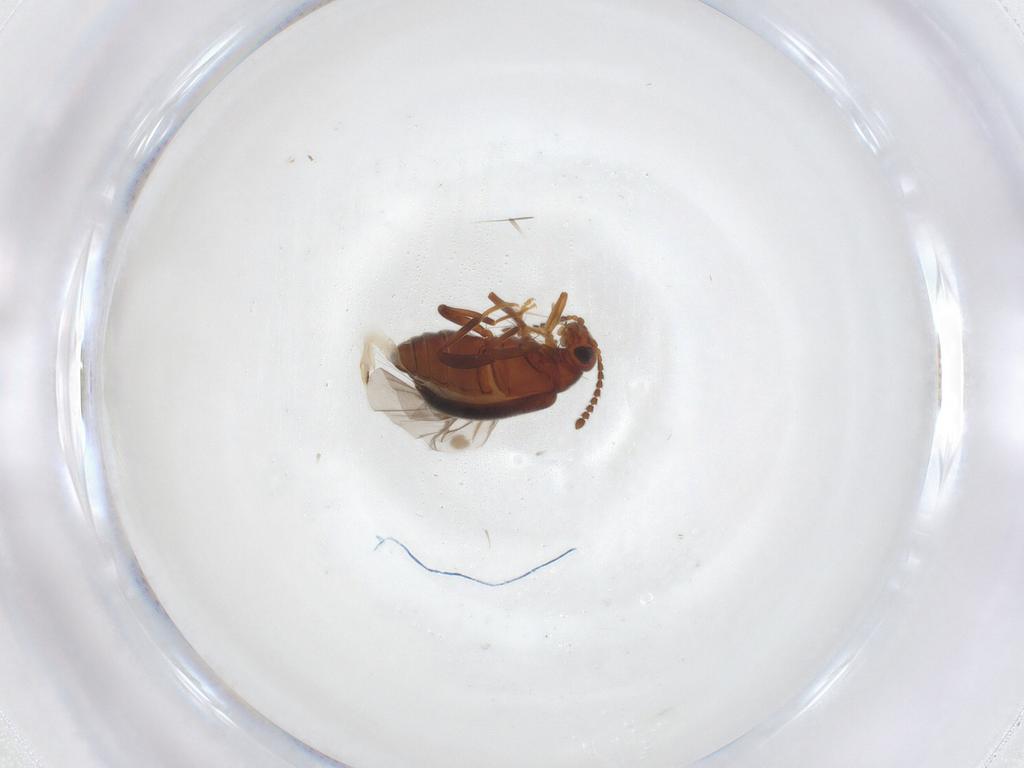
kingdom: Animalia
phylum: Arthropoda
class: Insecta
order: Coleoptera
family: Aderidae
